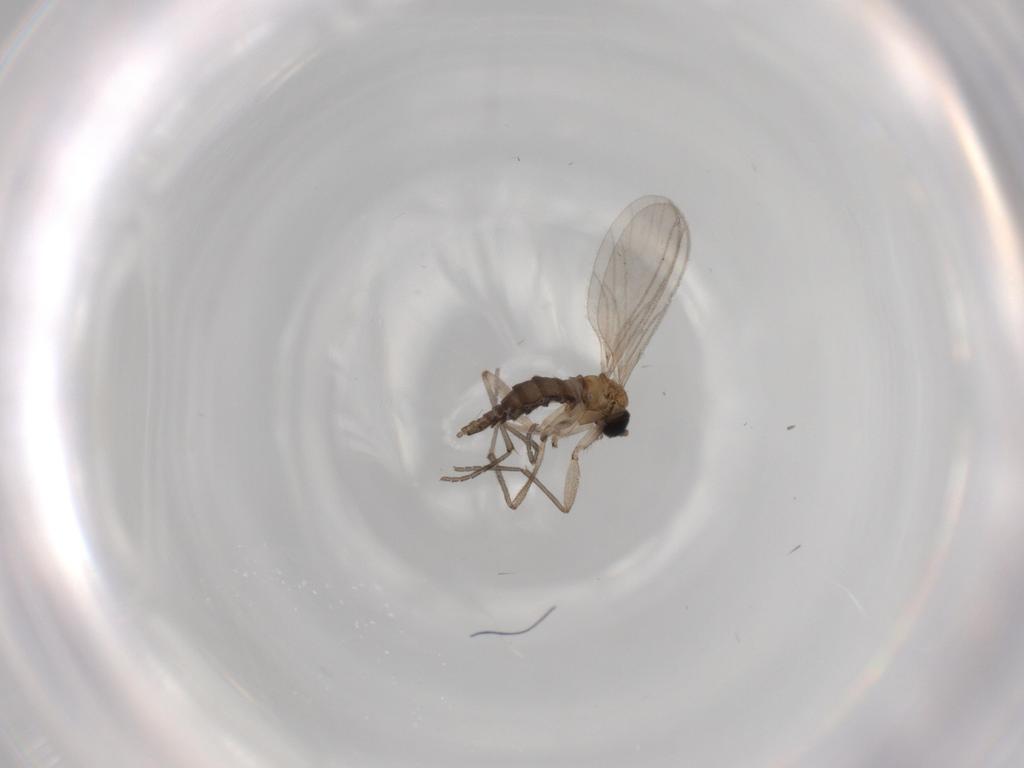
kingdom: Animalia
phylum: Arthropoda
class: Insecta
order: Diptera
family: Sciaridae
